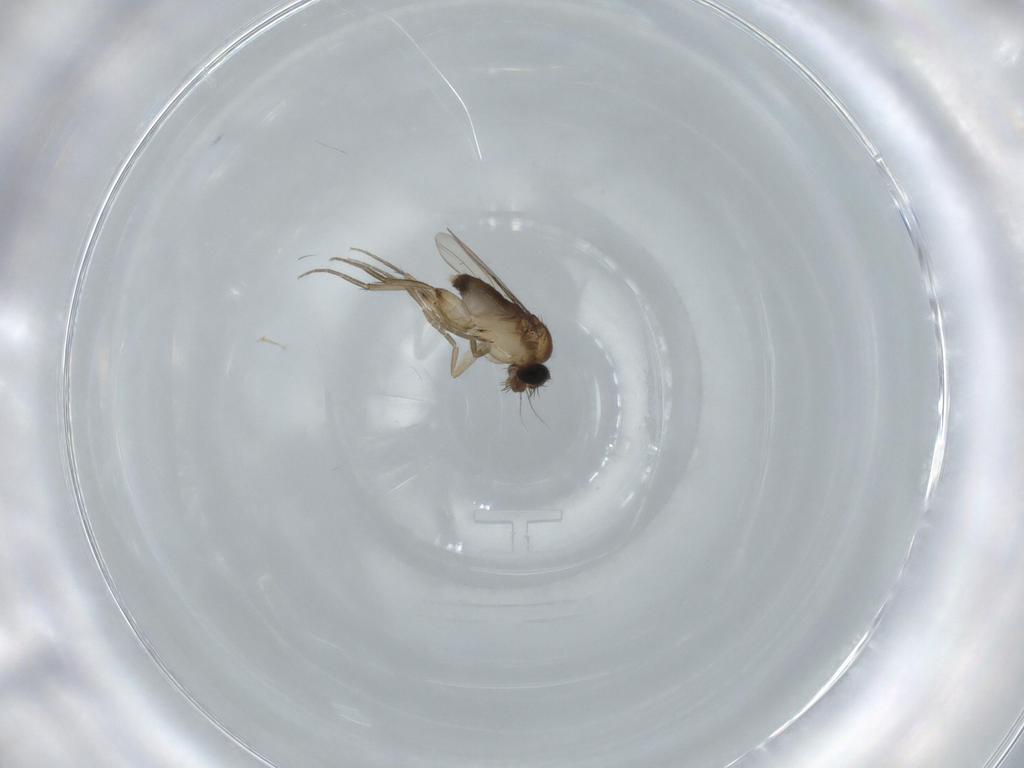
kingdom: Animalia
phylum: Arthropoda
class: Insecta
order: Diptera
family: Phoridae
